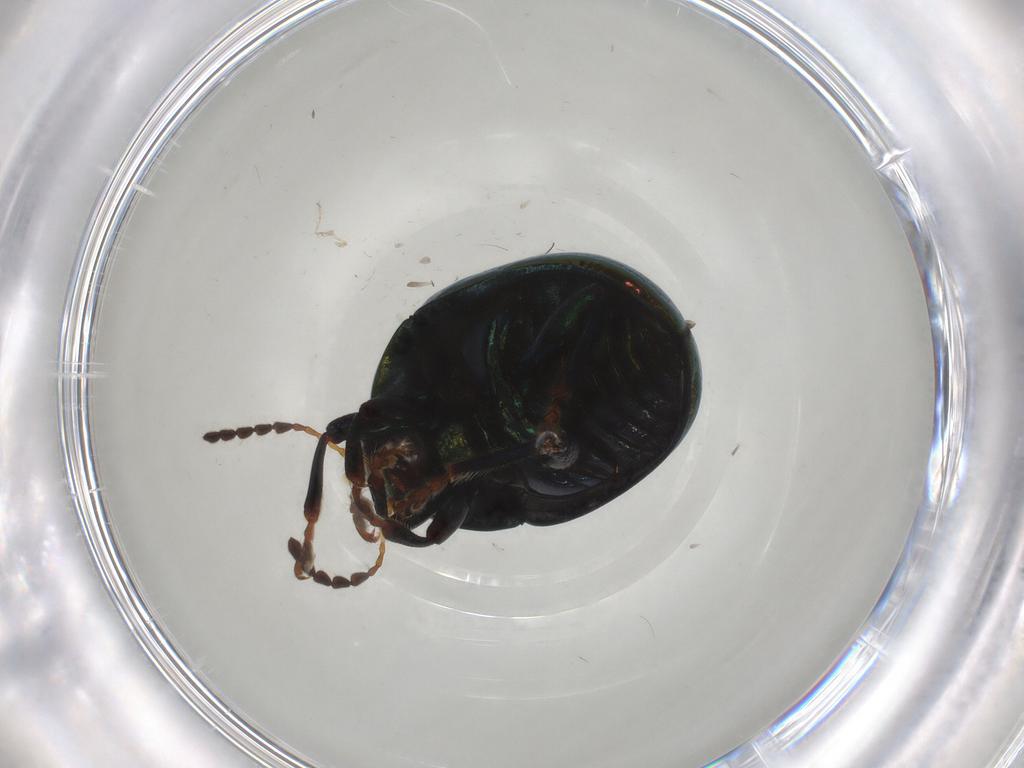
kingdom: Animalia
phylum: Arthropoda
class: Insecta
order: Coleoptera
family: Chrysomelidae
